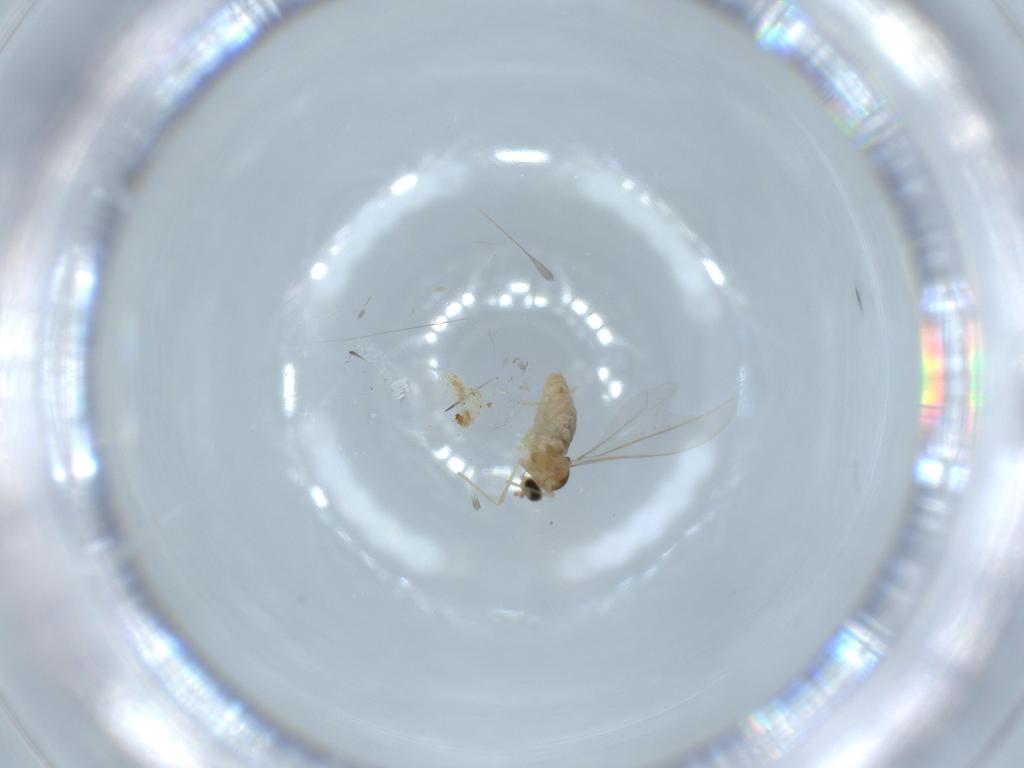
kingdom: Animalia
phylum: Arthropoda
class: Insecta
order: Diptera
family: Cecidomyiidae
